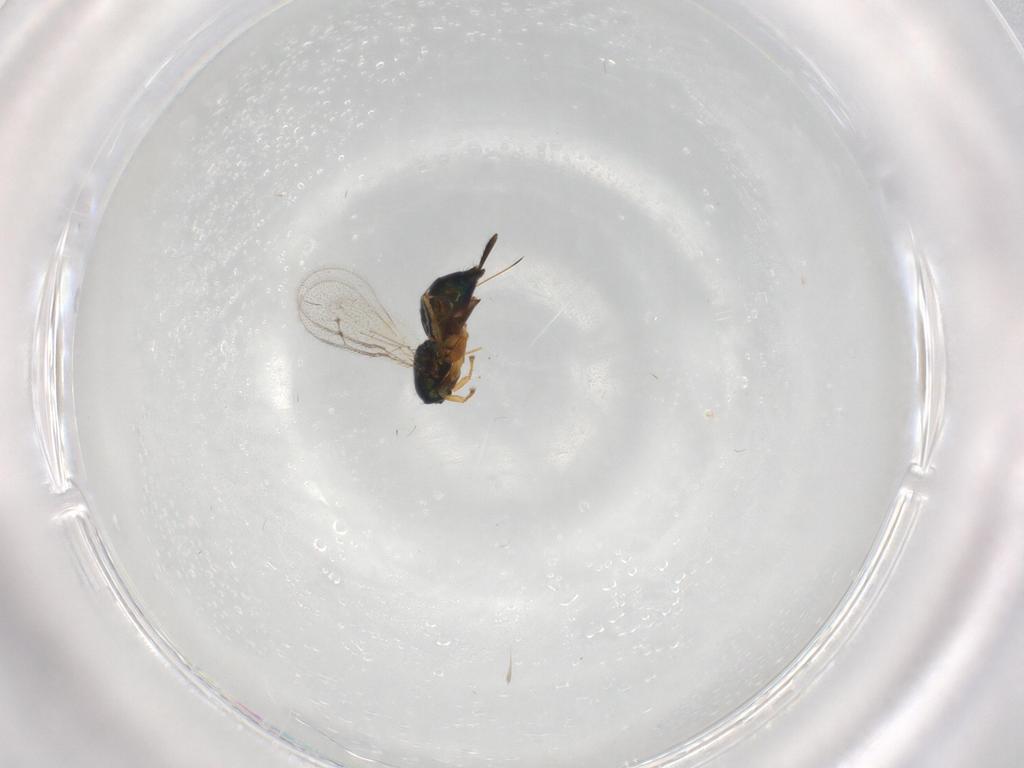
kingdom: Animalia
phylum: Arthropoda
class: Insecta
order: Hymenoptera
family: Torymidae
